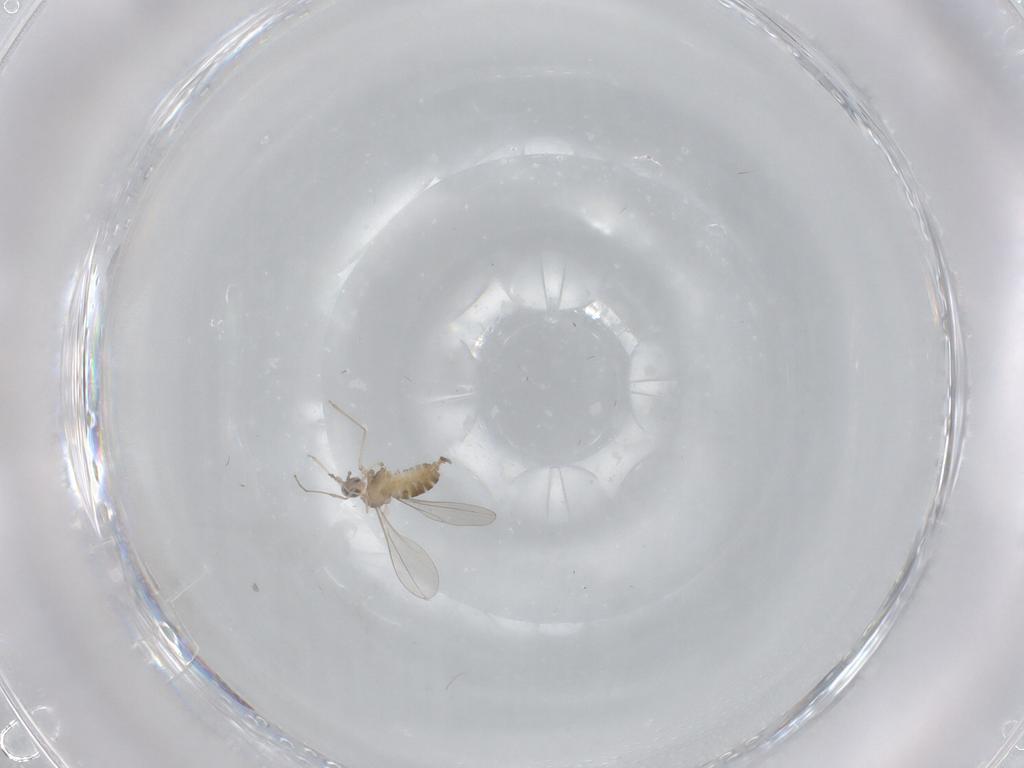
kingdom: Animalia
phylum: Arthropoda
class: Insecta
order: Diptera
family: Cecidomyiidae
